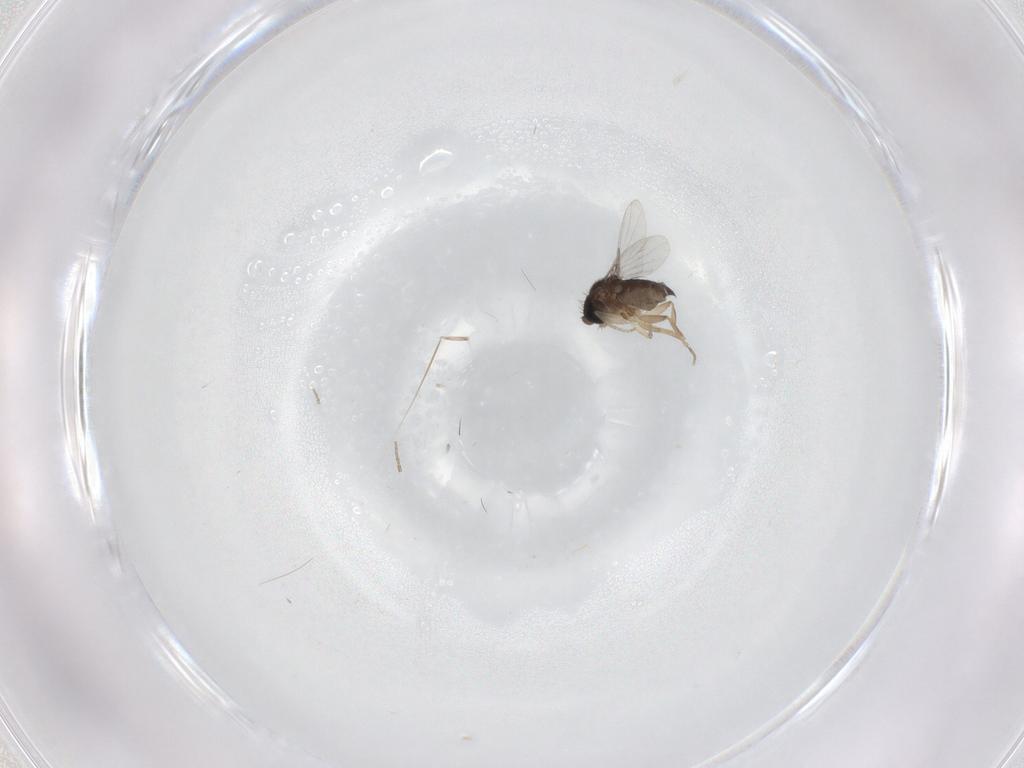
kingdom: Animalia
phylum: Arthropoda
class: Insecta
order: Diptera
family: Phoridae
